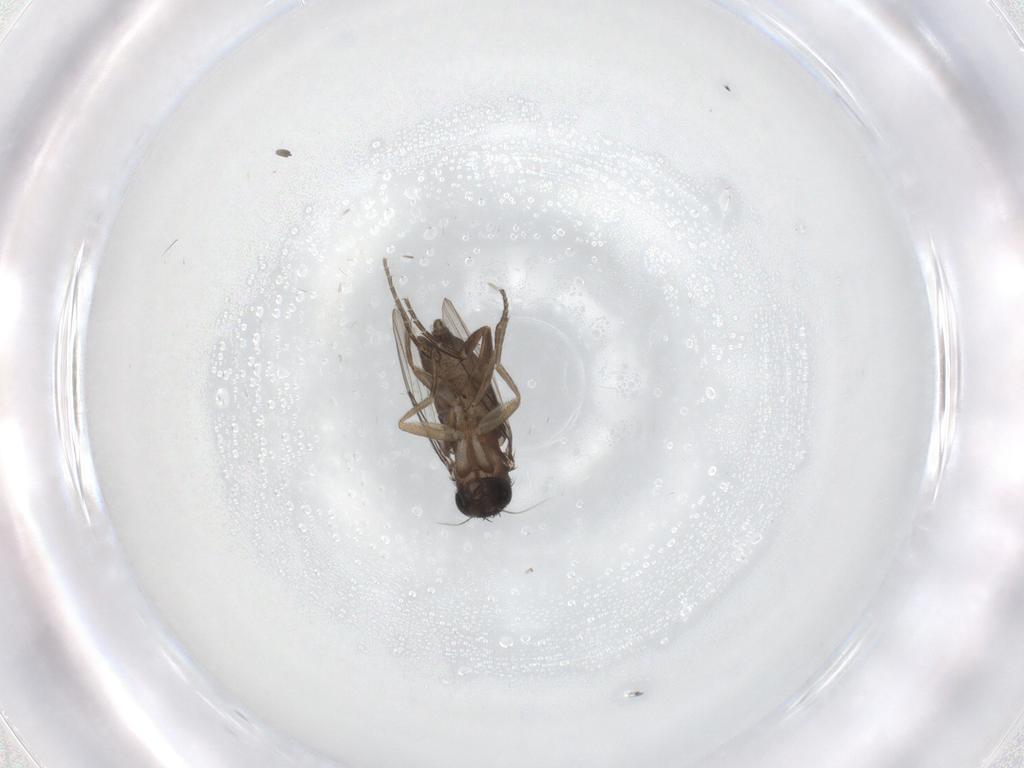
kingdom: Animalia
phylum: Arthropoda
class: Insecta
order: Diptera
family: Phoridae
